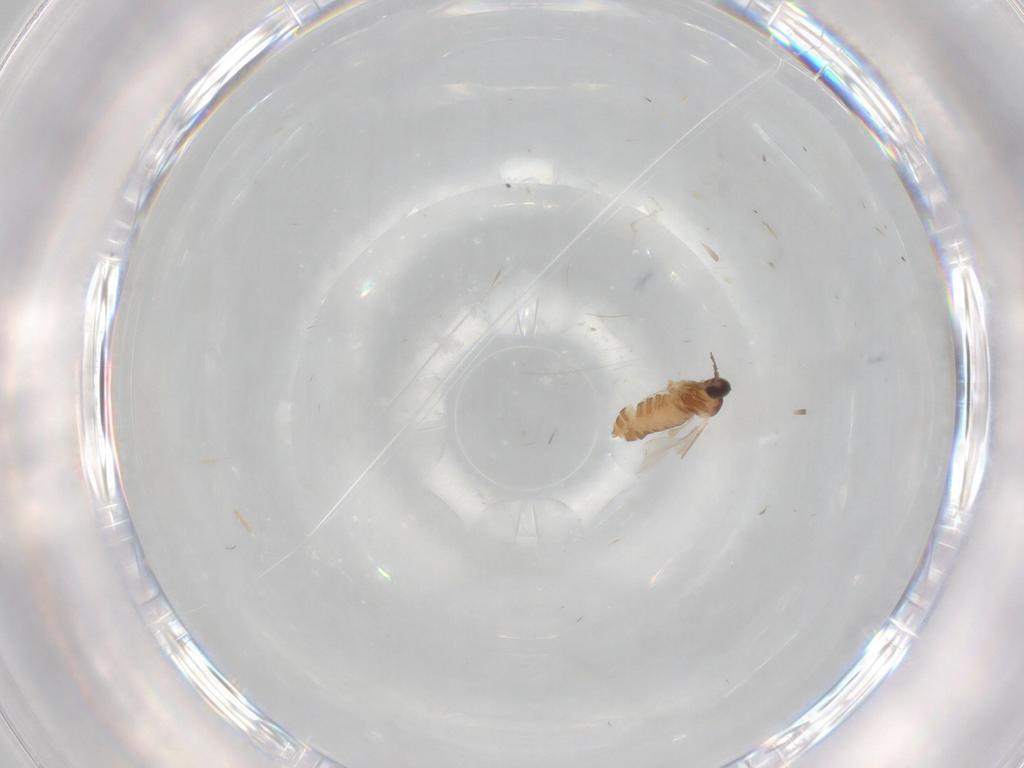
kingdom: Animalia
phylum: Arthropoda
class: Insecta
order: Diptera
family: Cecidomyiidae
